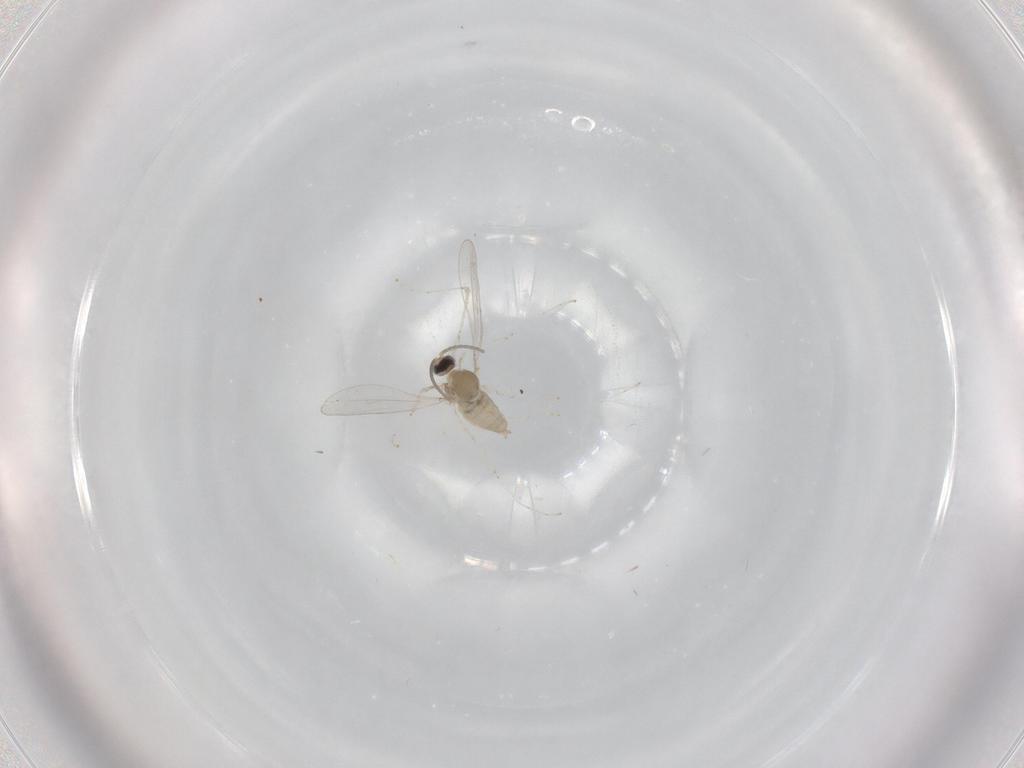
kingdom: Animalia
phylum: Arthropoda
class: Insecta
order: Diptera
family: Cecidomyiidae
